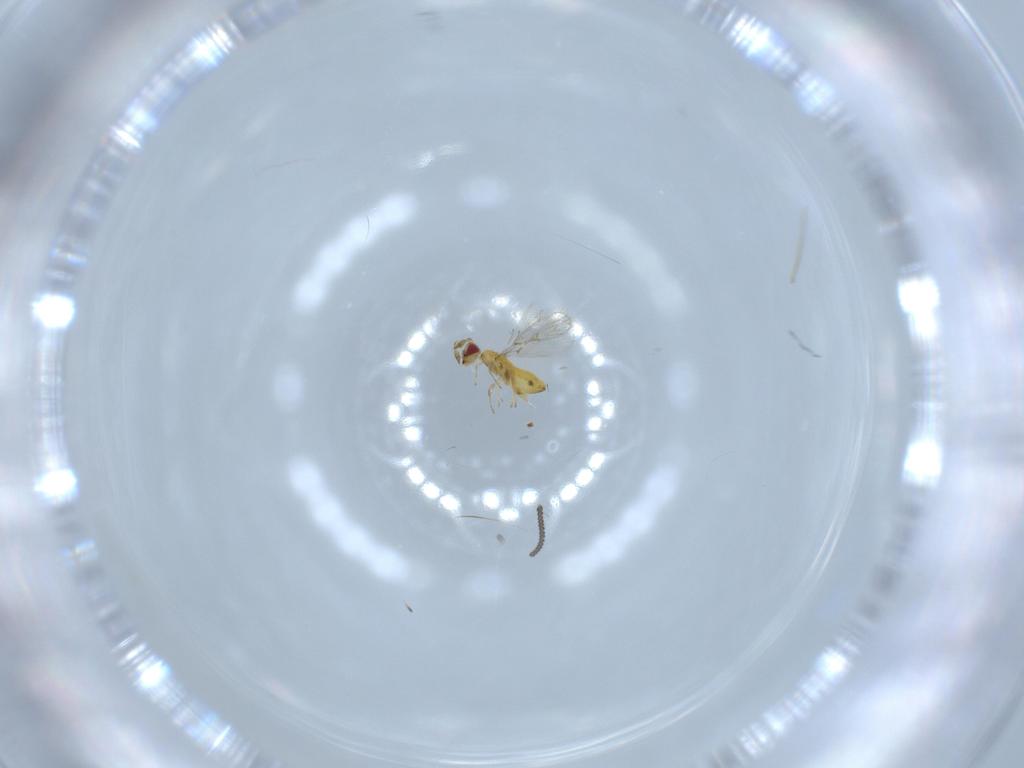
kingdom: Animalia
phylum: Arthropoda
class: Insecta
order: Hymenoptera
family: Trichogrammatidae
